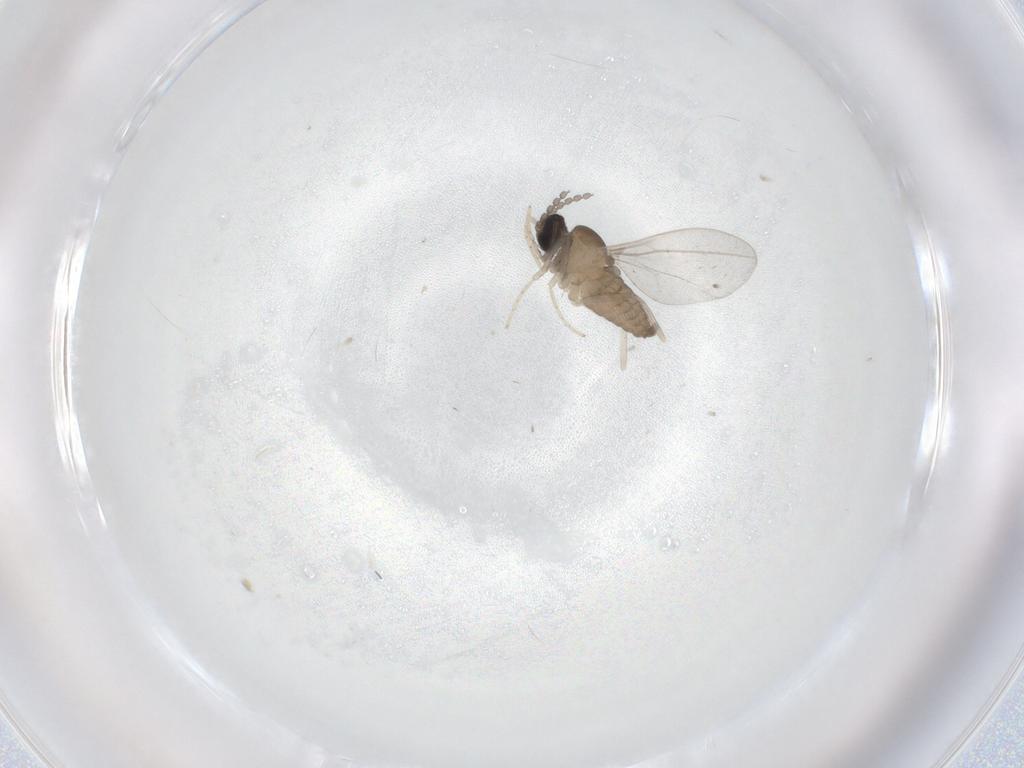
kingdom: Animalia
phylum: Arthropoda
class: Insecta
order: Diptera
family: Cecidomyiidae
